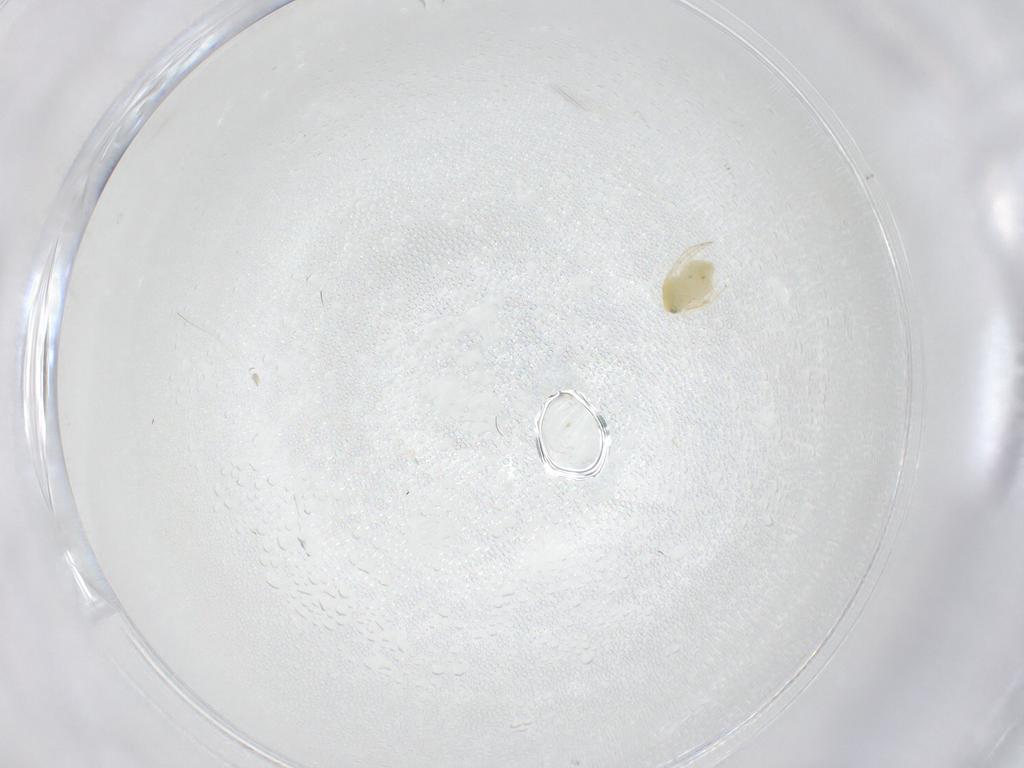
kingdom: Animalia
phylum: Arthropoda
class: Insecta
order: Hemiptera
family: Aleyrodidae
